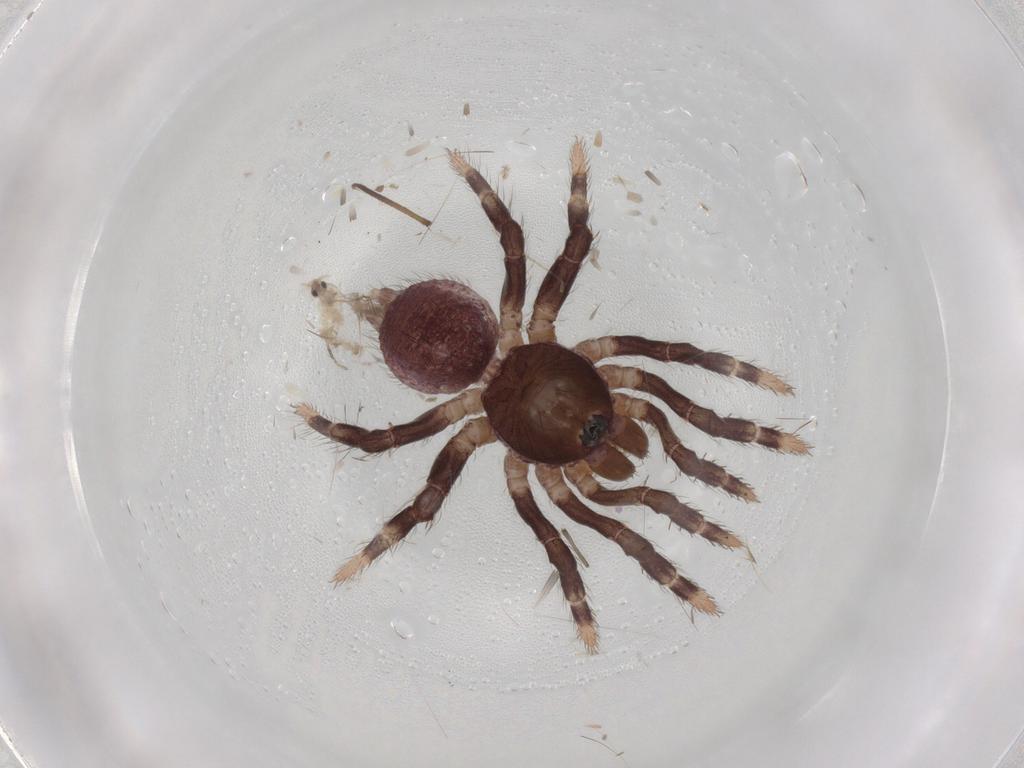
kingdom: Animalia
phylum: Arthropoda
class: Arachnida
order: Araneae
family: Halonoproctidae
